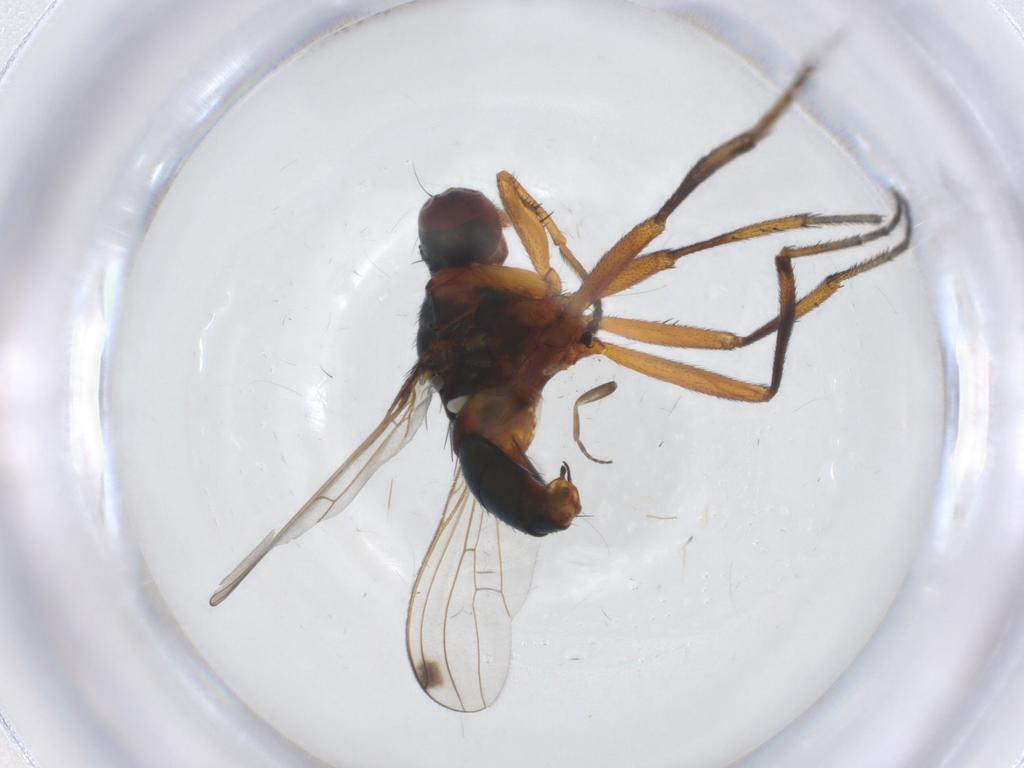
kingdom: Animalia
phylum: Arthropoda
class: Insecta
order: Diptera
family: Sepsidae
